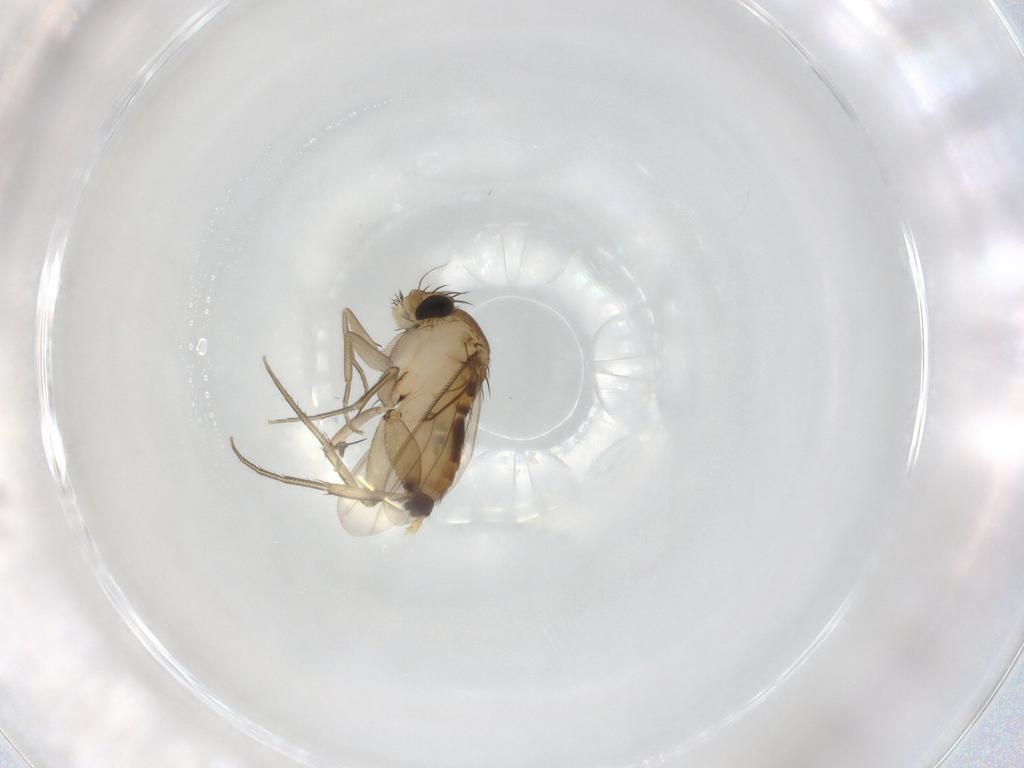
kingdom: Animalia
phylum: Arthropoda
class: Insecta
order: Diptera
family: Phoridae
